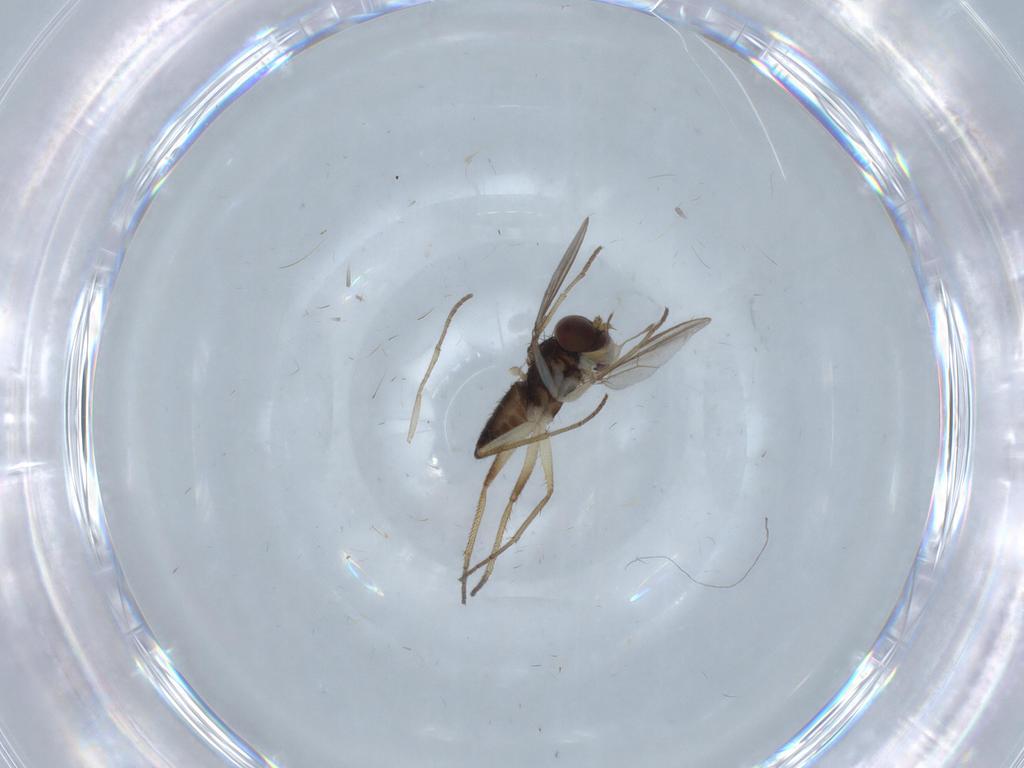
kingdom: Animalia
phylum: Arthropoda
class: Insecta
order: Diptera
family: Dolichopodidae
